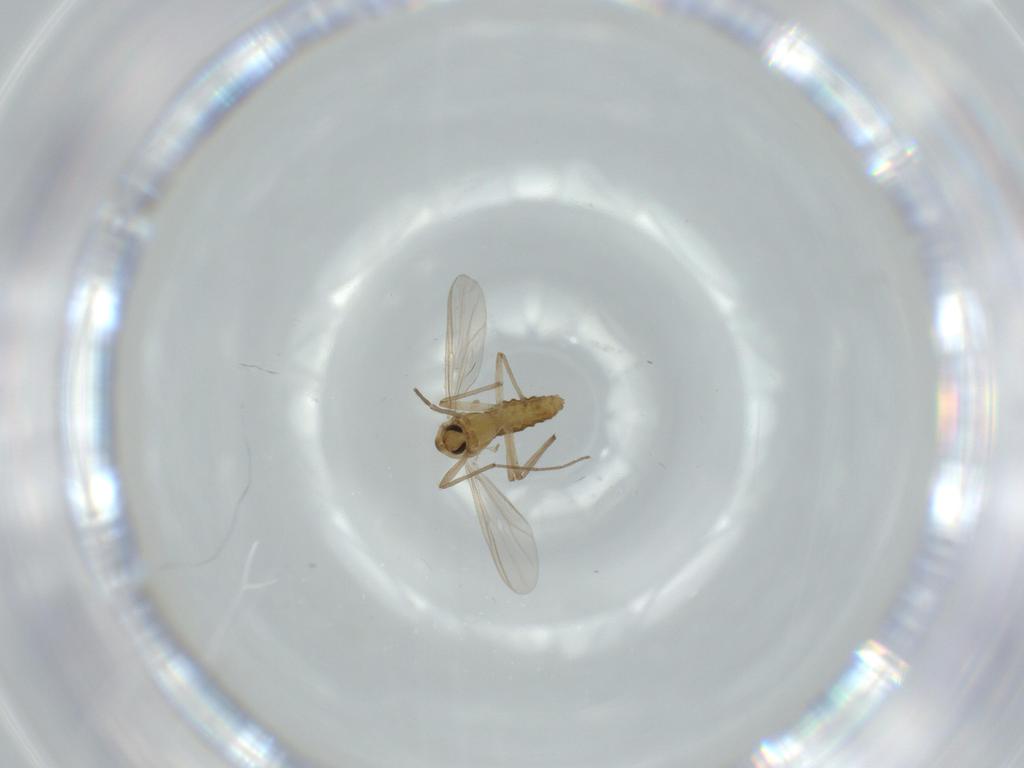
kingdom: Animalia
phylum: Arthropoda
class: Insecta
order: Diptera
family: Chironomidae
